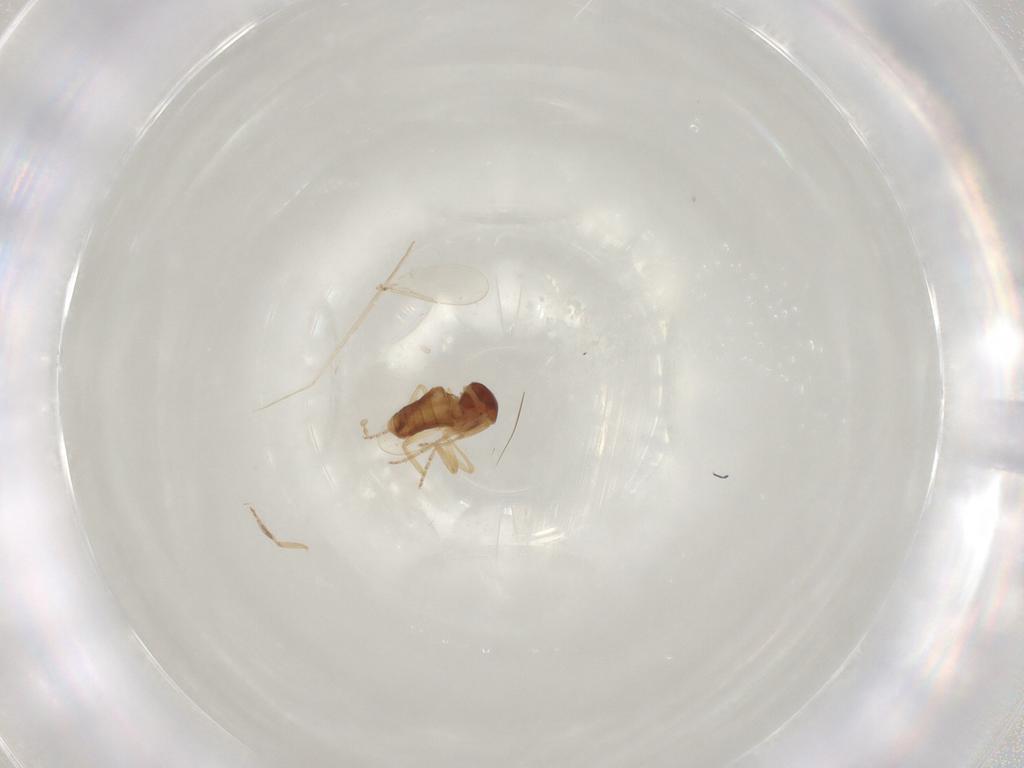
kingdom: Animalia
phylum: Arthropoda
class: Insecta
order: Diptera
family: Ceratopogonidae
